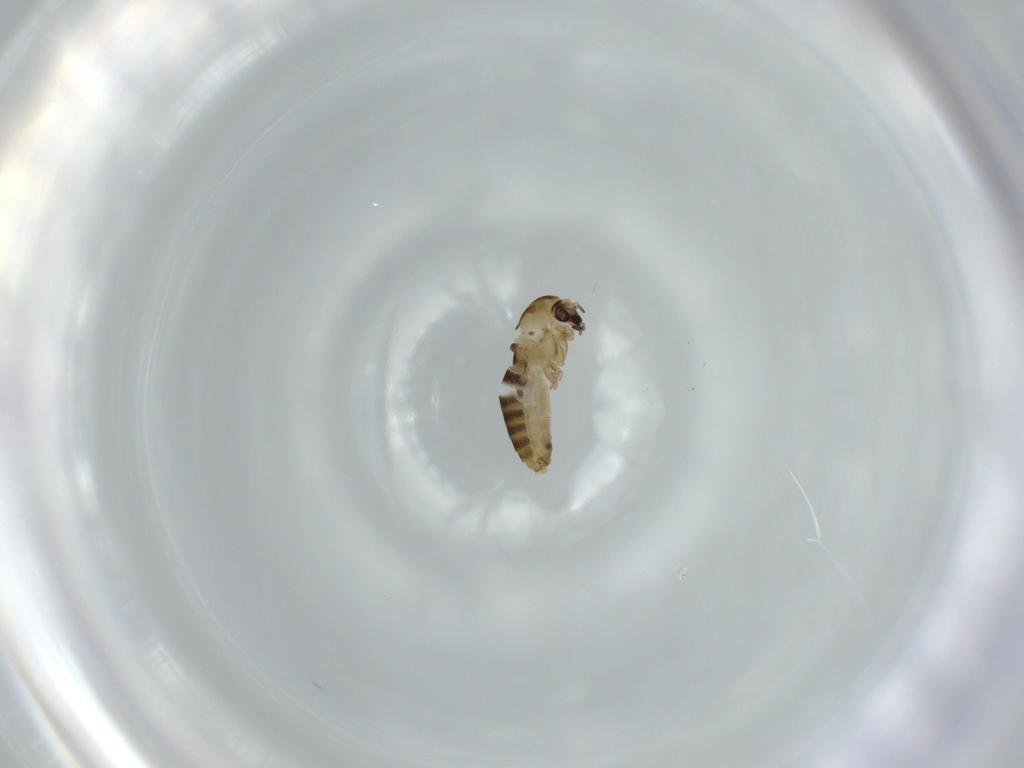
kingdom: Animalia
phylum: Arthropoda
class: Insecta
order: Diptera
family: Chironomidae
